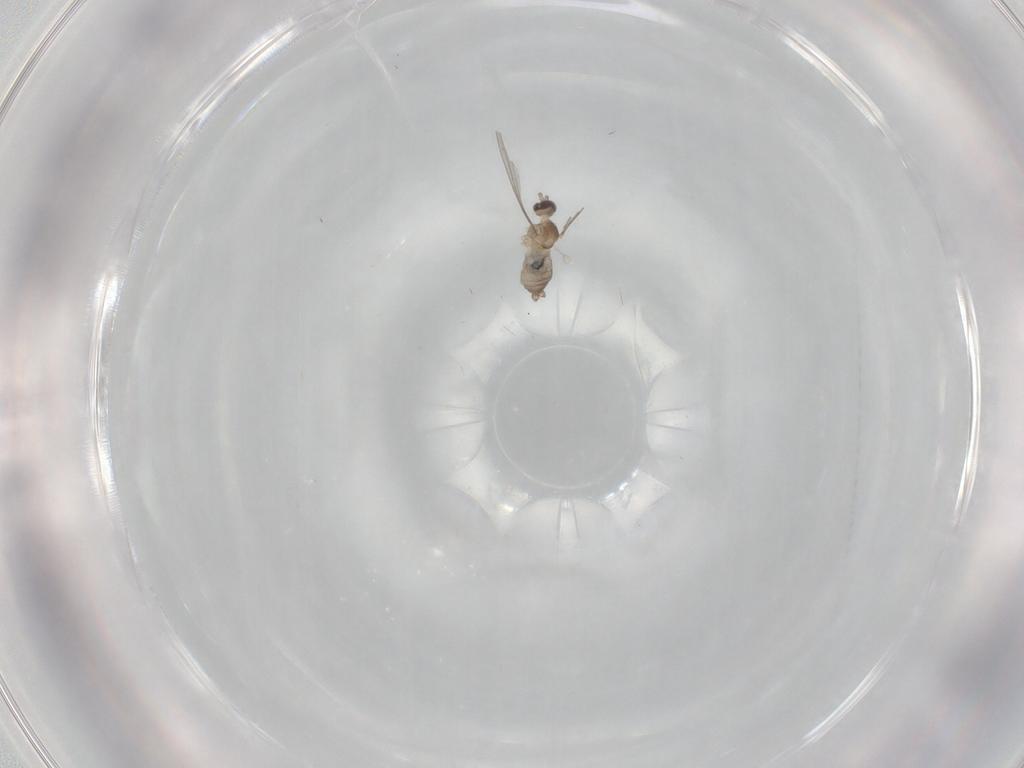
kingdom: Animalia
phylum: Arthropoda
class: Insecta
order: Diptera
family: Cecidomyiidae
